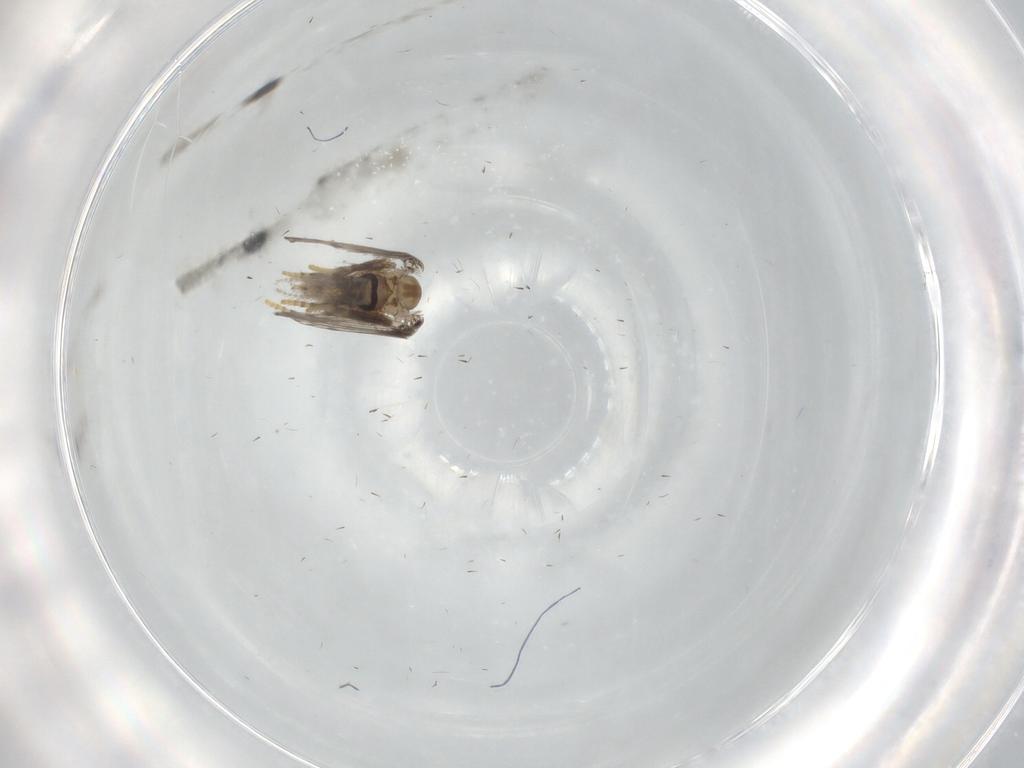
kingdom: Animalia
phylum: Arthropoda
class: Insecta
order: Diptera
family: Psychodidae
